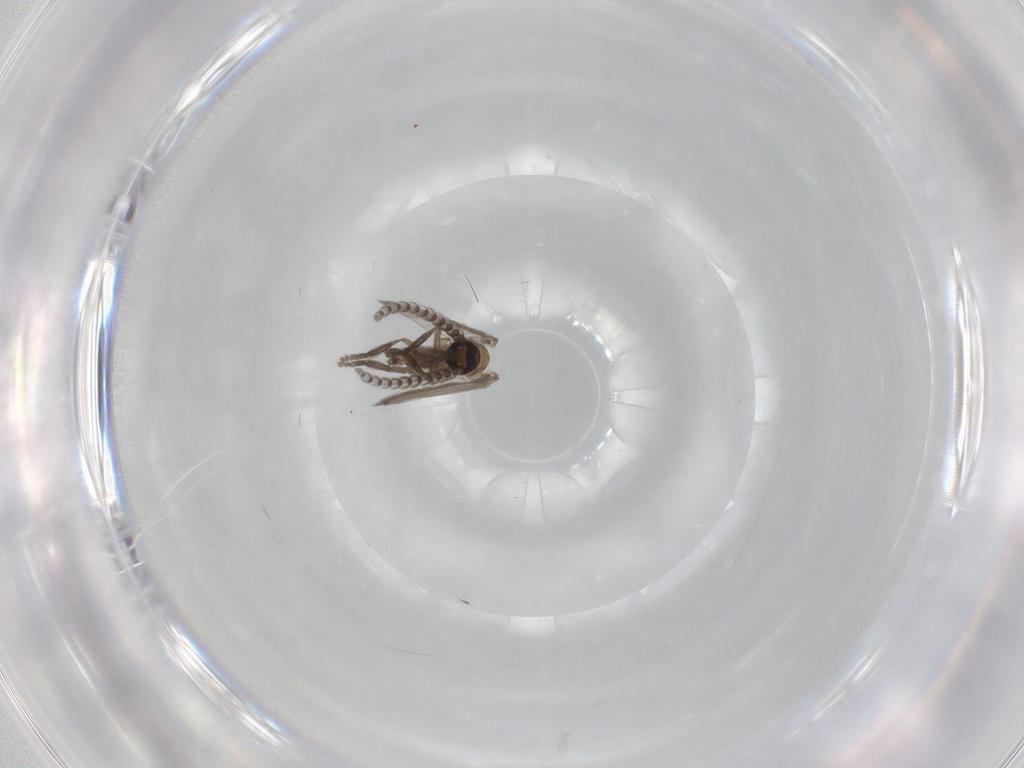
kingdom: Animalia
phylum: Arthropoda
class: Insecta
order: Diptera
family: Psychodidae
